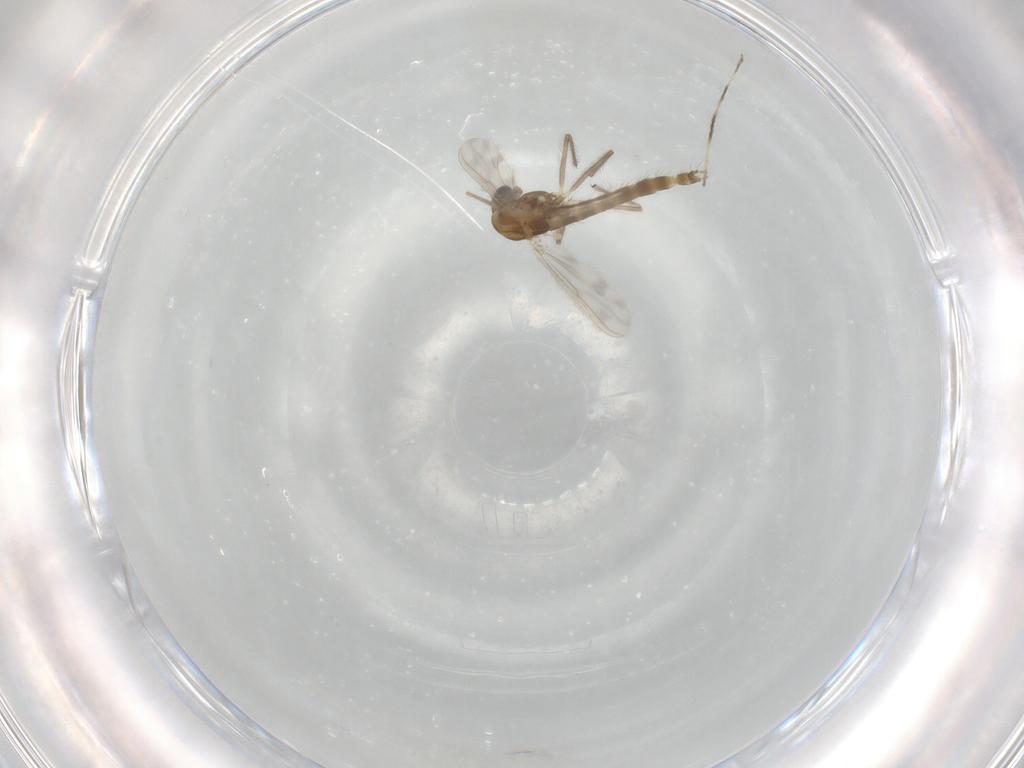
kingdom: Animalia
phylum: Arthropoda
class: Insecta
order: Diptera
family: Chironomidae
